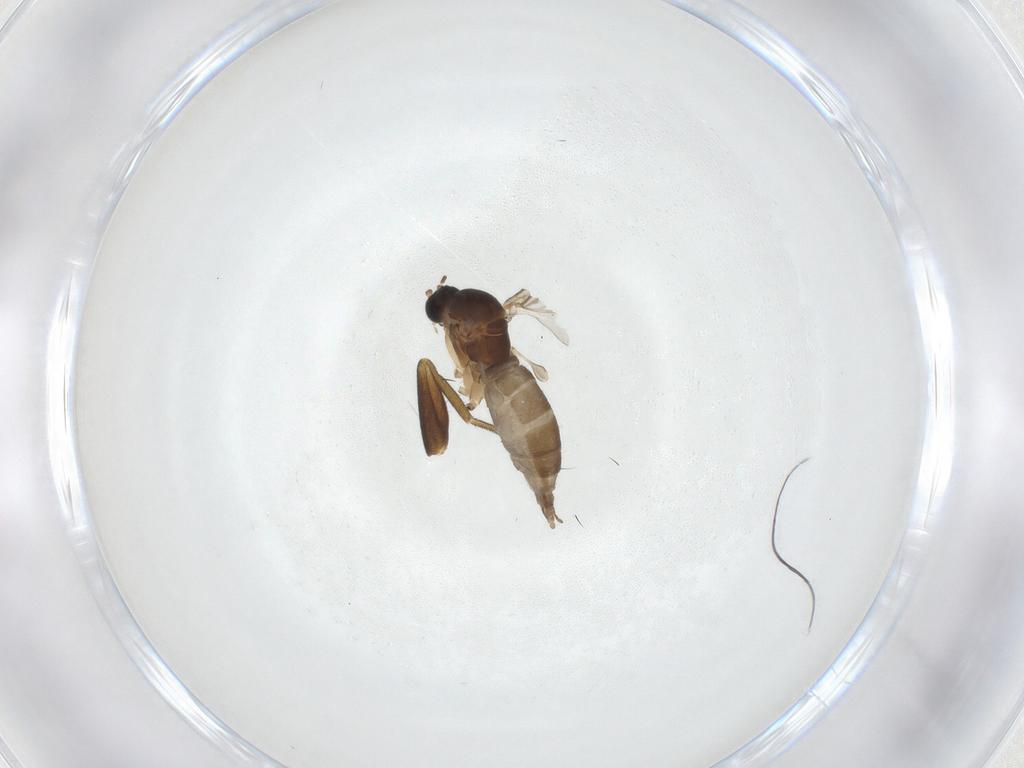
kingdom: Animalia
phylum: Arthropoda
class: Insecta
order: Diptera
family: Phoridae
